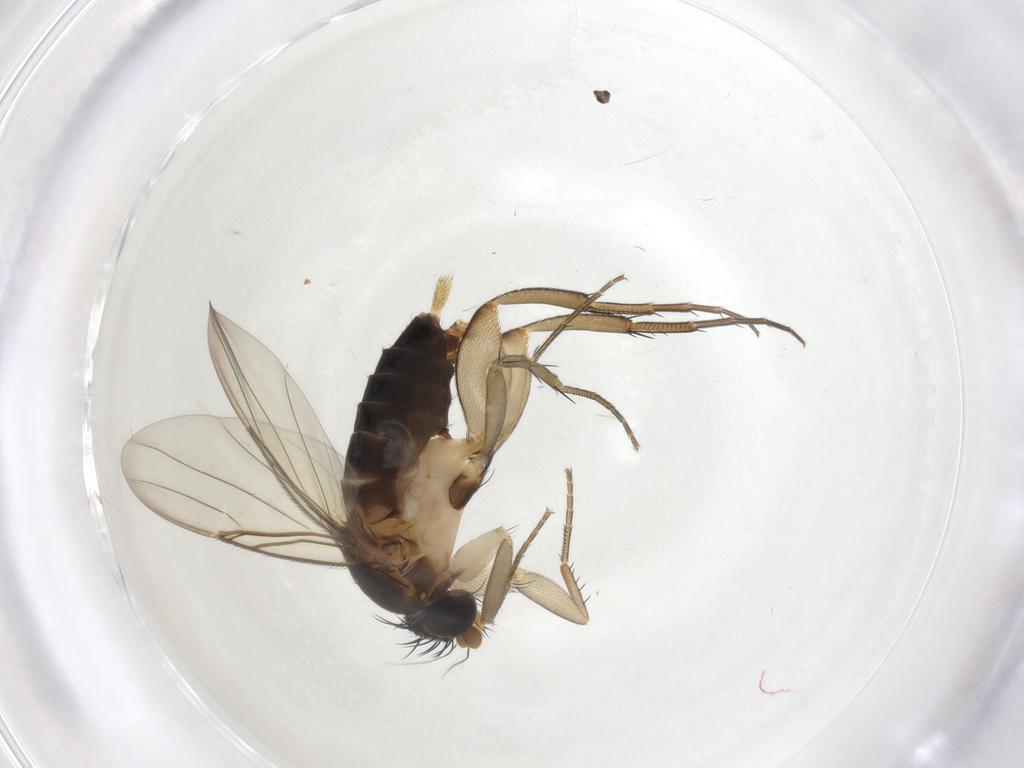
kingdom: Animalia
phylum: Arthropoda
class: Insecta
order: Diptera
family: Phoridae
